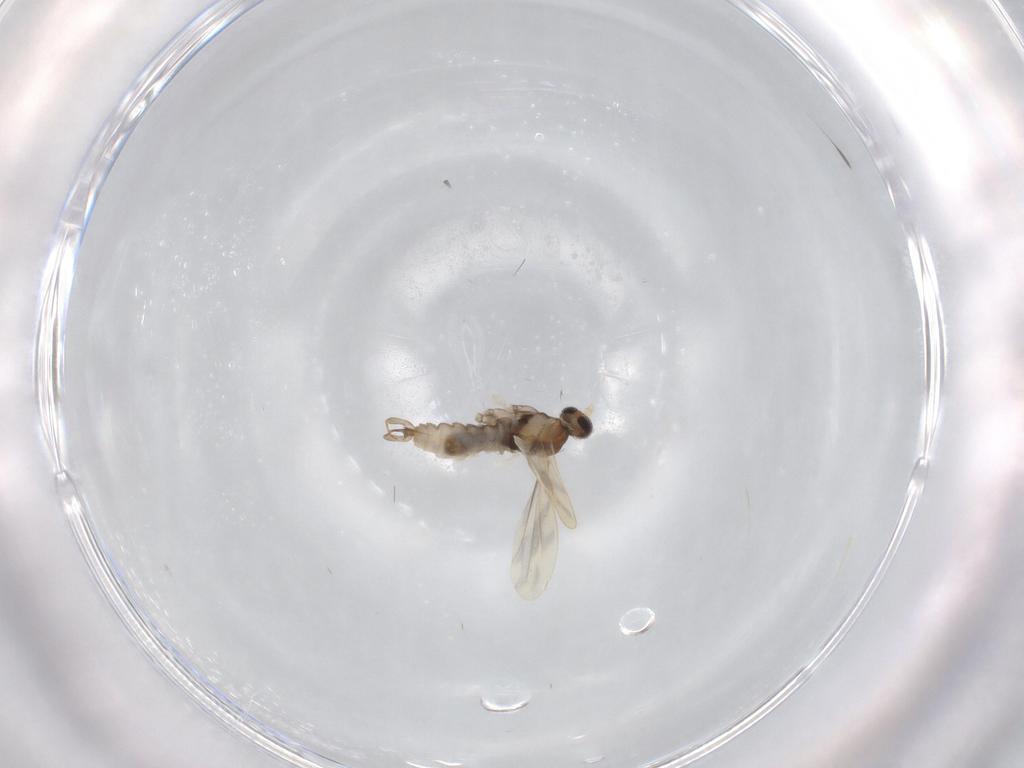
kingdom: Animalia
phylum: Arthropoda
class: Insecta
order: Diptera
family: Cecidomyiidae
